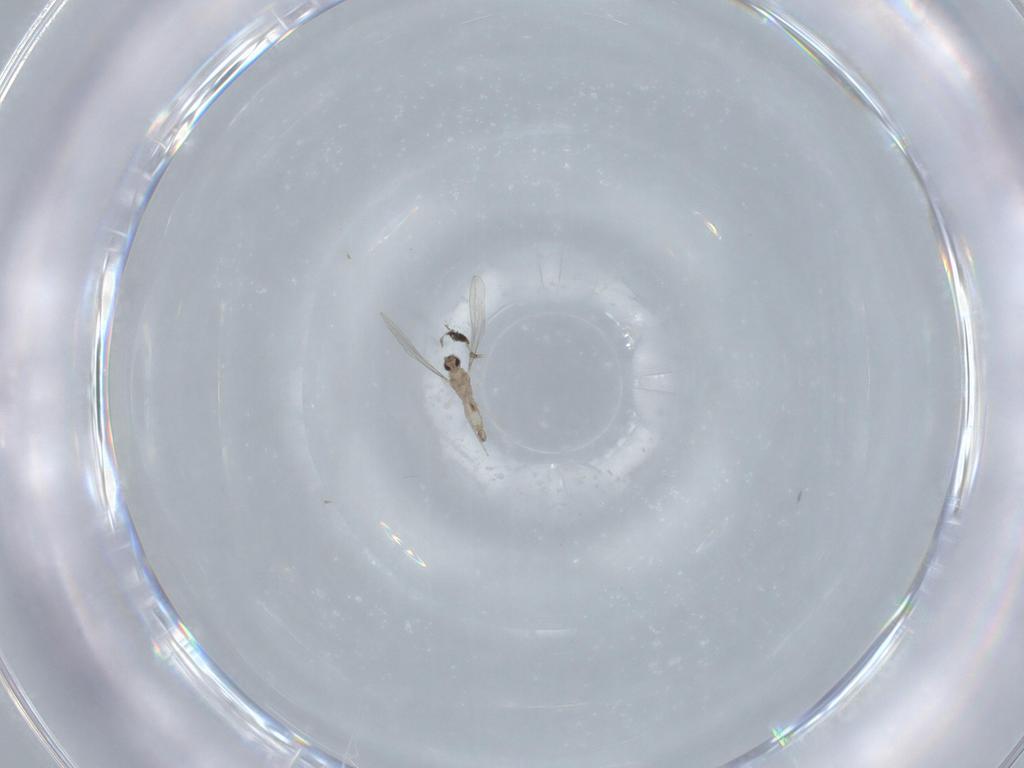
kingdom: Animalia
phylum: Arthropoda
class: Insecta
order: Diptera
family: Cecidomyiidae
